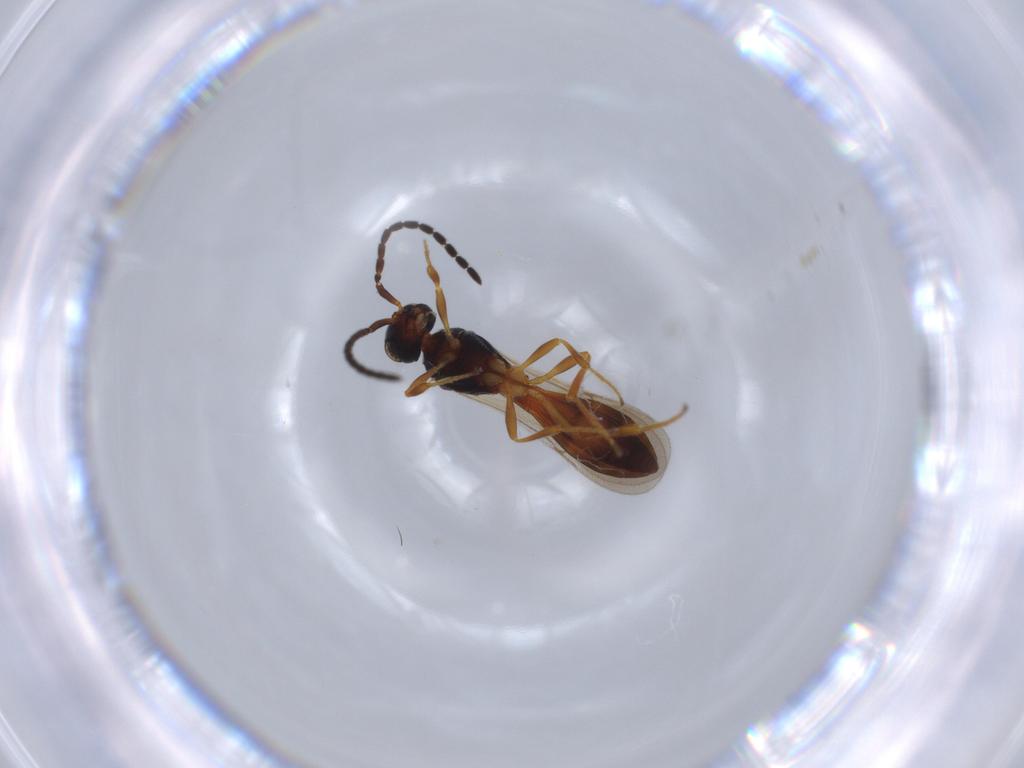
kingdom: Animalia
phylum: Arthropoda
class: Insecta
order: Hymenoptera
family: Scelionidae
